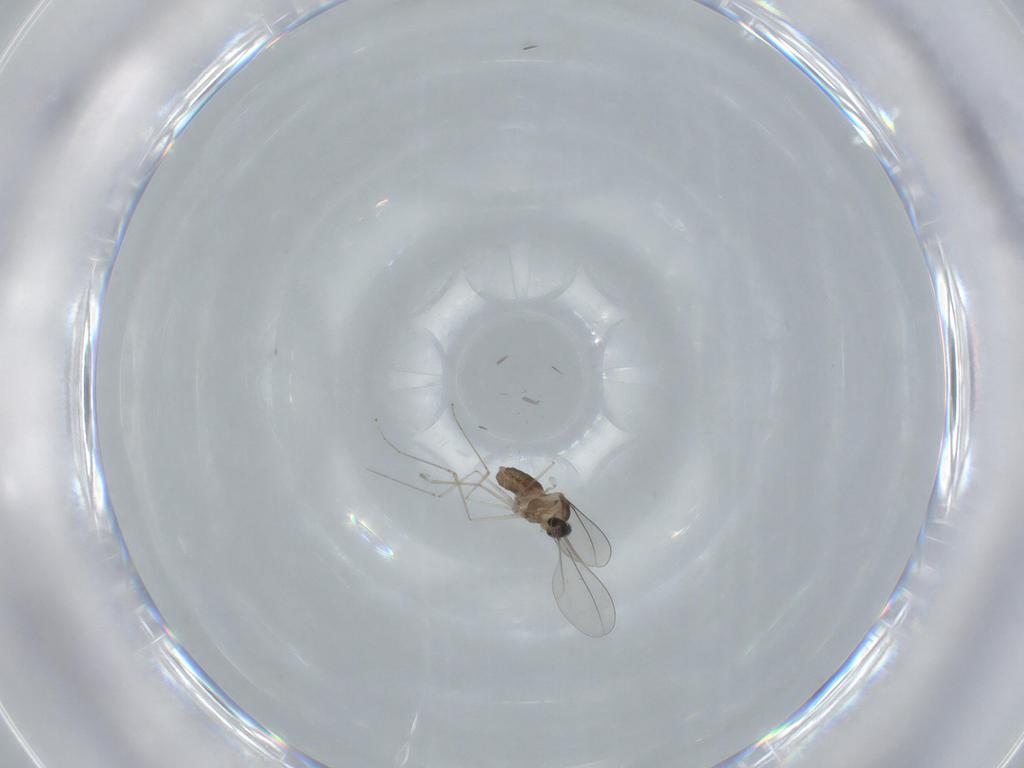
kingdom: Animalia
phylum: Arthropoda
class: Insecta
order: Diptera
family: Cecidomyiidae
